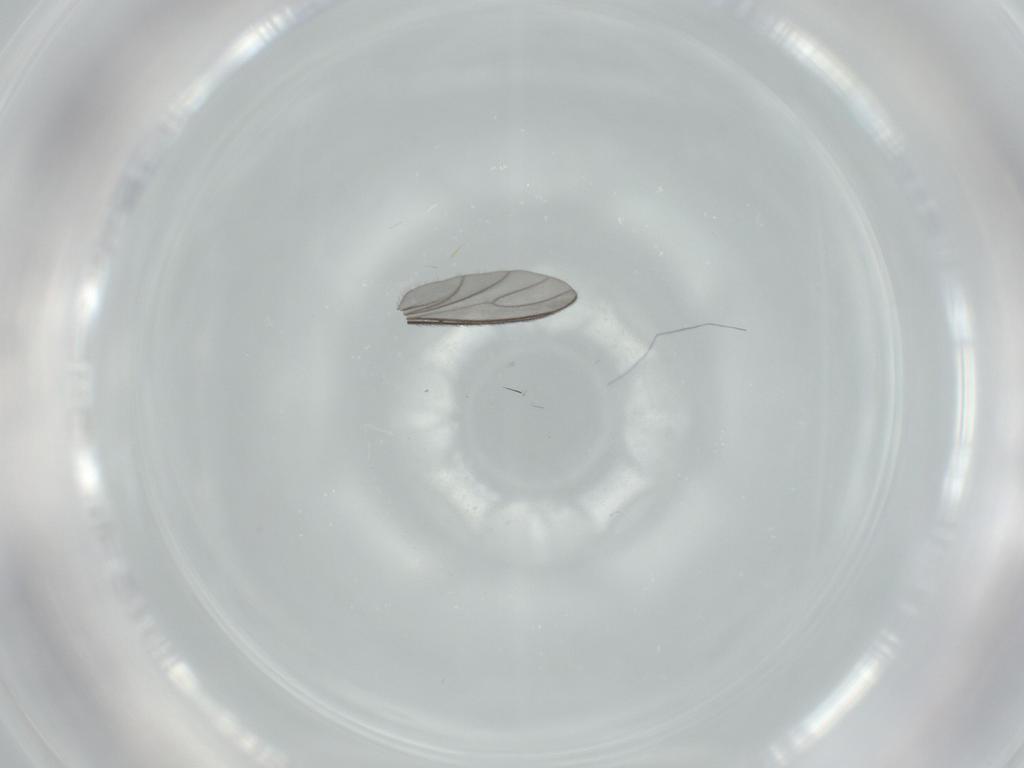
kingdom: Animalia
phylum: Arthropoda
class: Insecta
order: Diptera
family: Sciaridae
